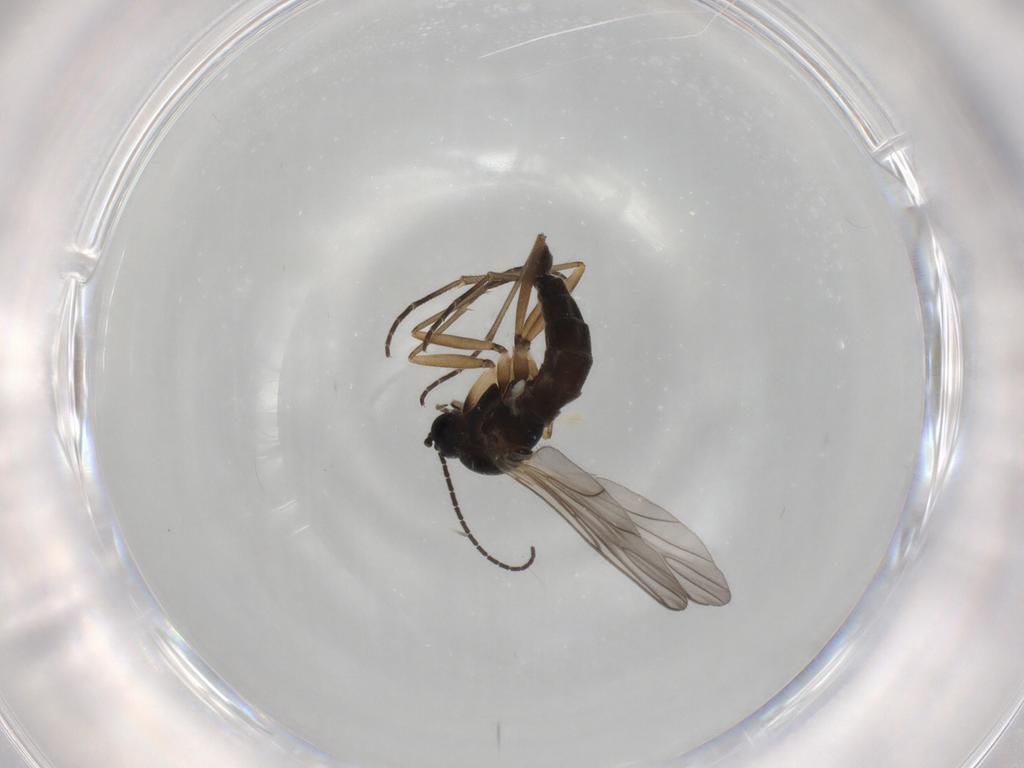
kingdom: Animalia
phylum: Arthropoda
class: Insecta
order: Diptera
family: Sciaridae
